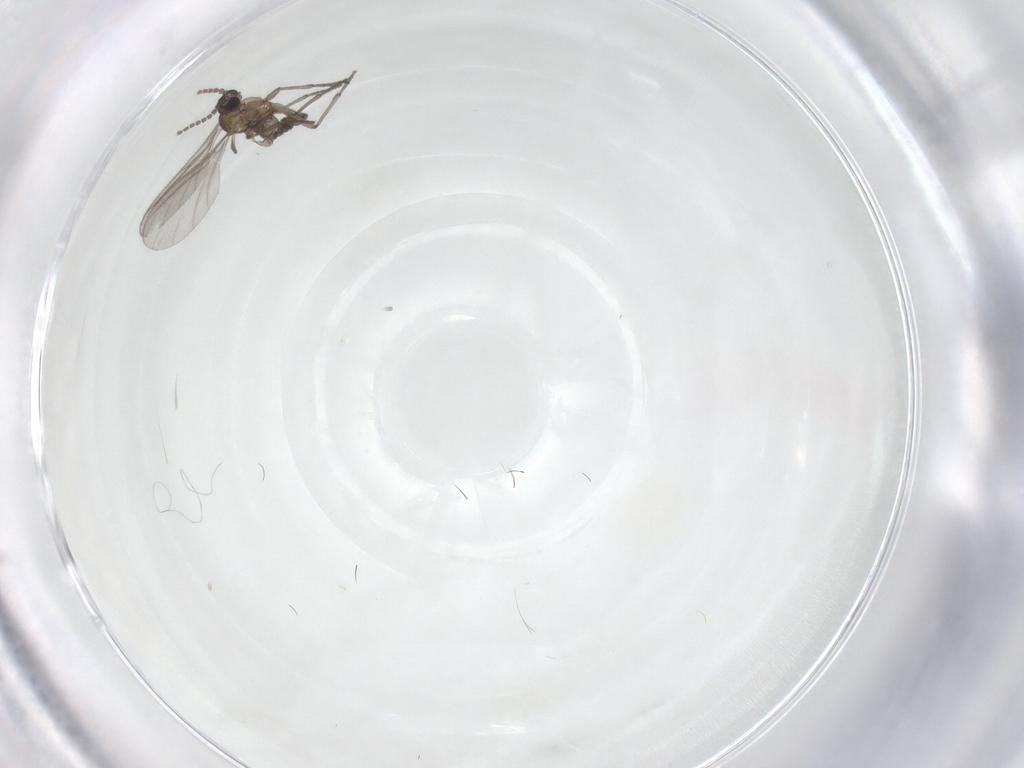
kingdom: Animalia
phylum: Arthropoda
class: Insecta
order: Diptera
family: Sciaridae
